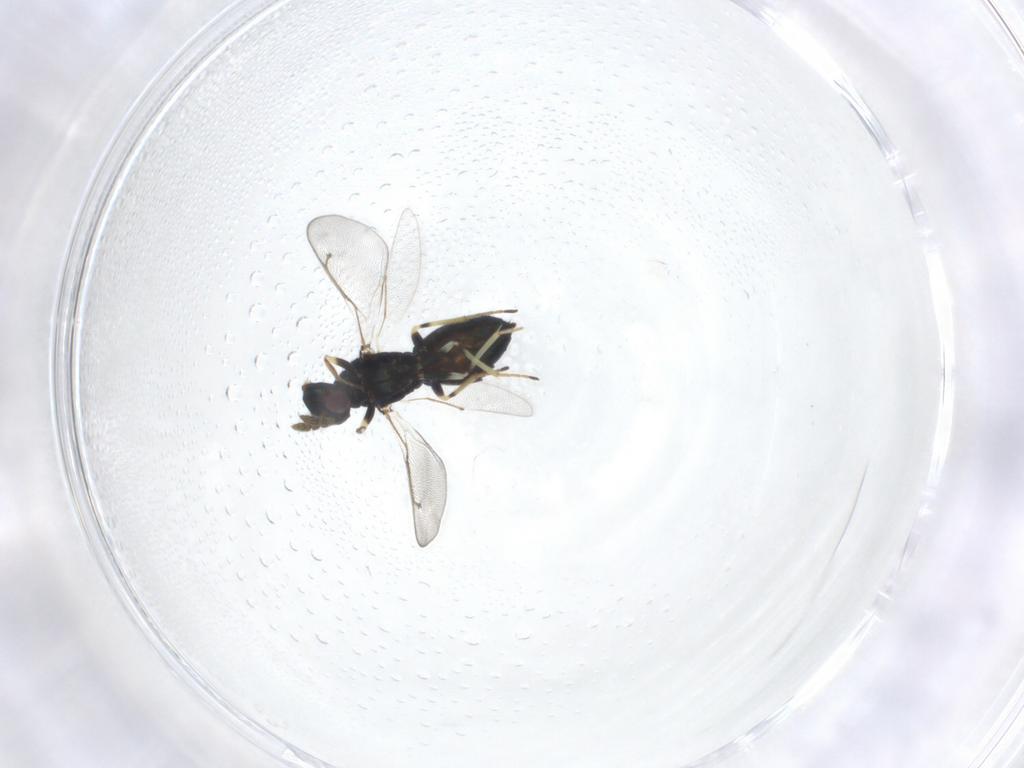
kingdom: Animalia
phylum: Arthropoda
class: Insecta
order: Hymenoptera
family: Eulophidae
